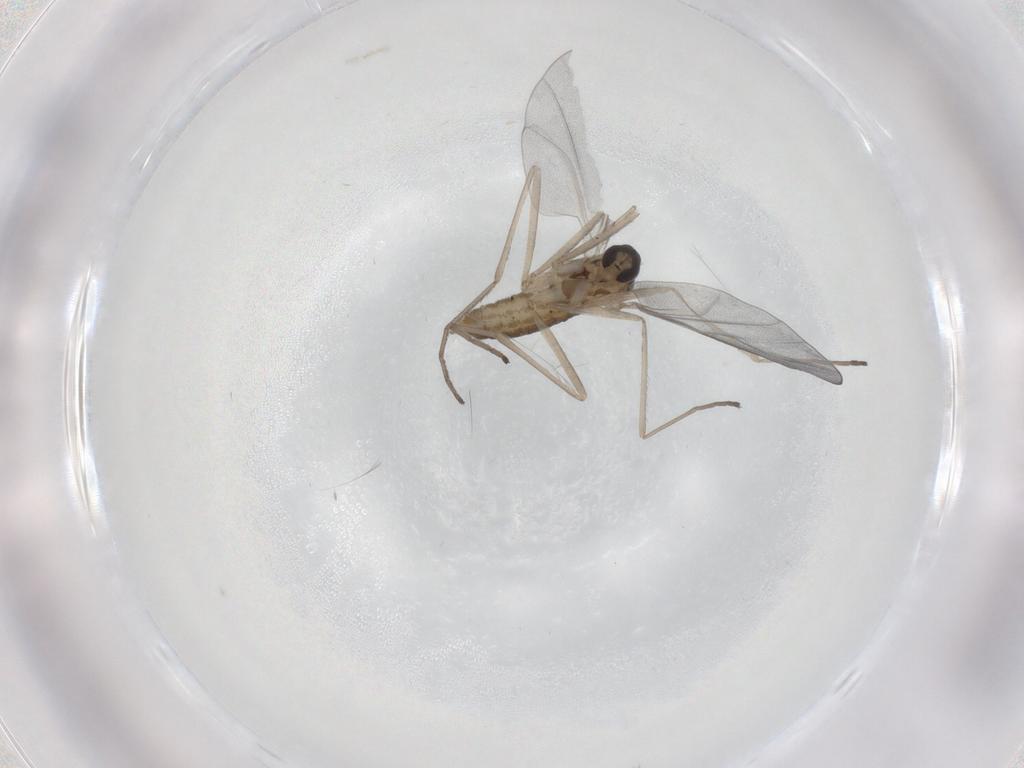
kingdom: Animalia
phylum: Arthropoda
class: Insecta
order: Diptera
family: Cecidomyiidae
